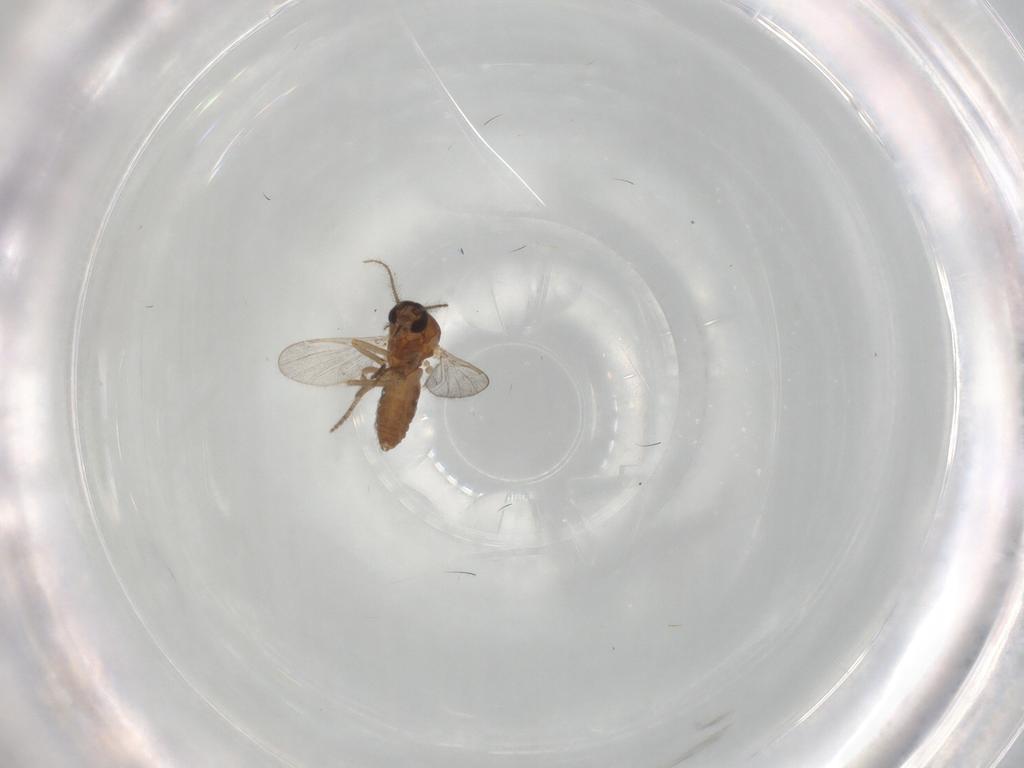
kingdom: Animalia
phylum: Arthropoda
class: Insecta
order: Diptera
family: Ceratopogonidae
